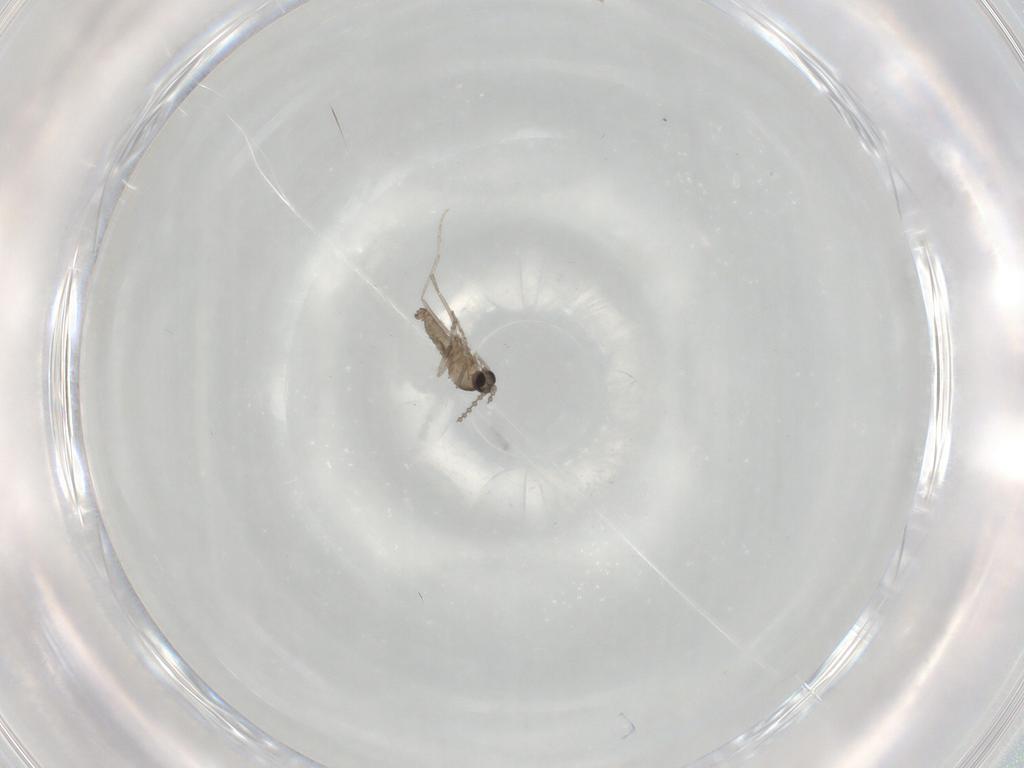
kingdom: Animalia
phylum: Arthropoda
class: Insecta
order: Diptera
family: Cecidomyiidae
